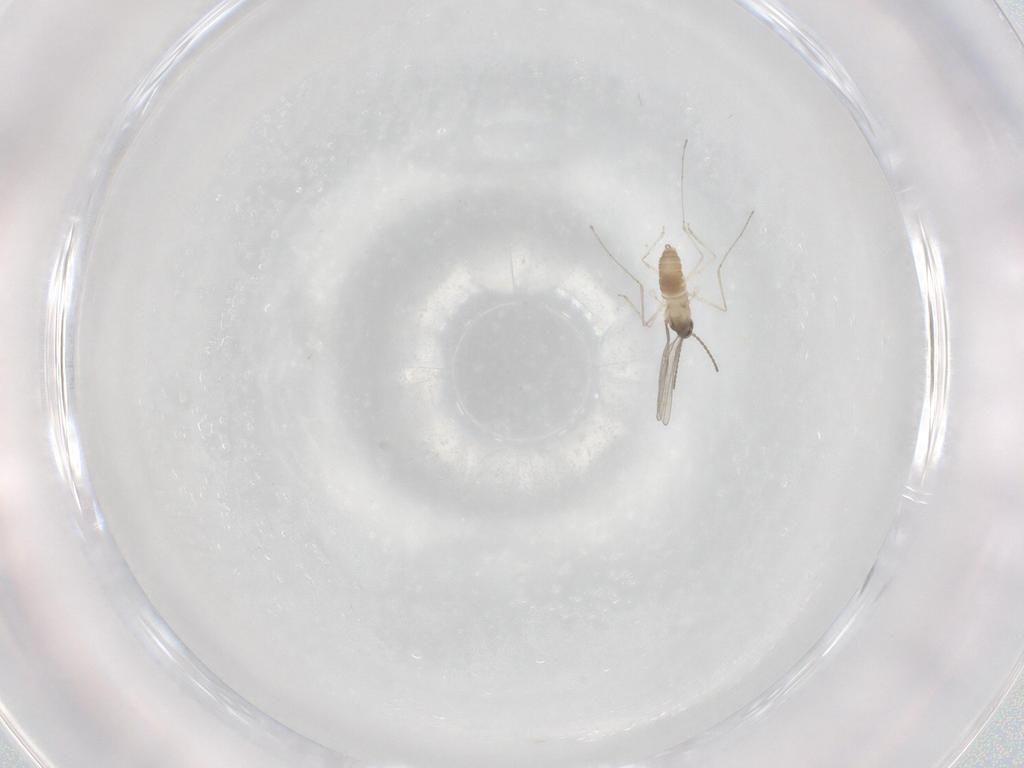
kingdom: Animalia
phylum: Arthropoda
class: Insecta
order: Diptera
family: Cecidomyiidae
